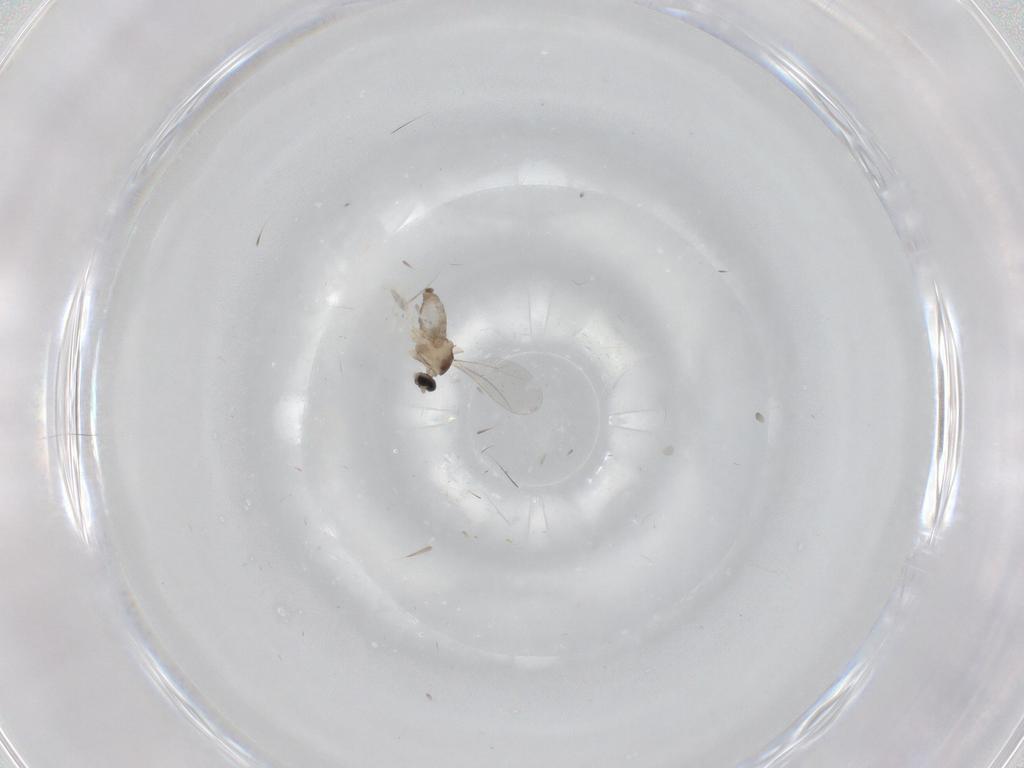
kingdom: Animalia
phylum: Arthropoda
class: Insecta
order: Diptera
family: Cecidomyiidae
